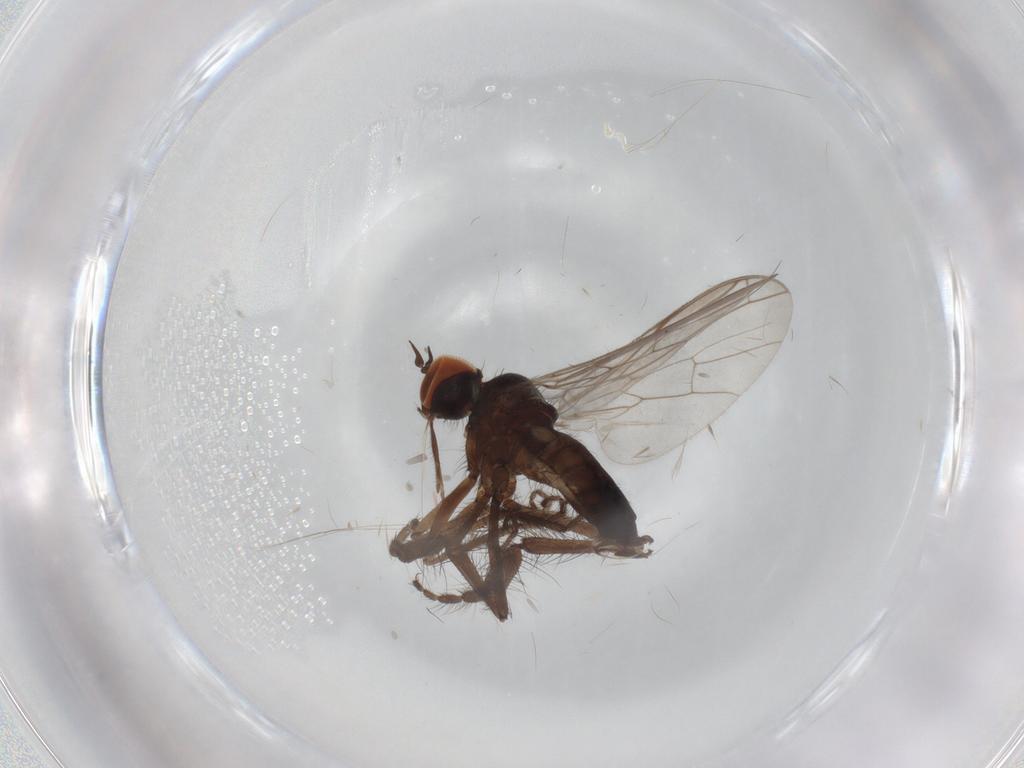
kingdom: Animalia
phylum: Arthropoda
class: Insecta
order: Diptera
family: Empididae
